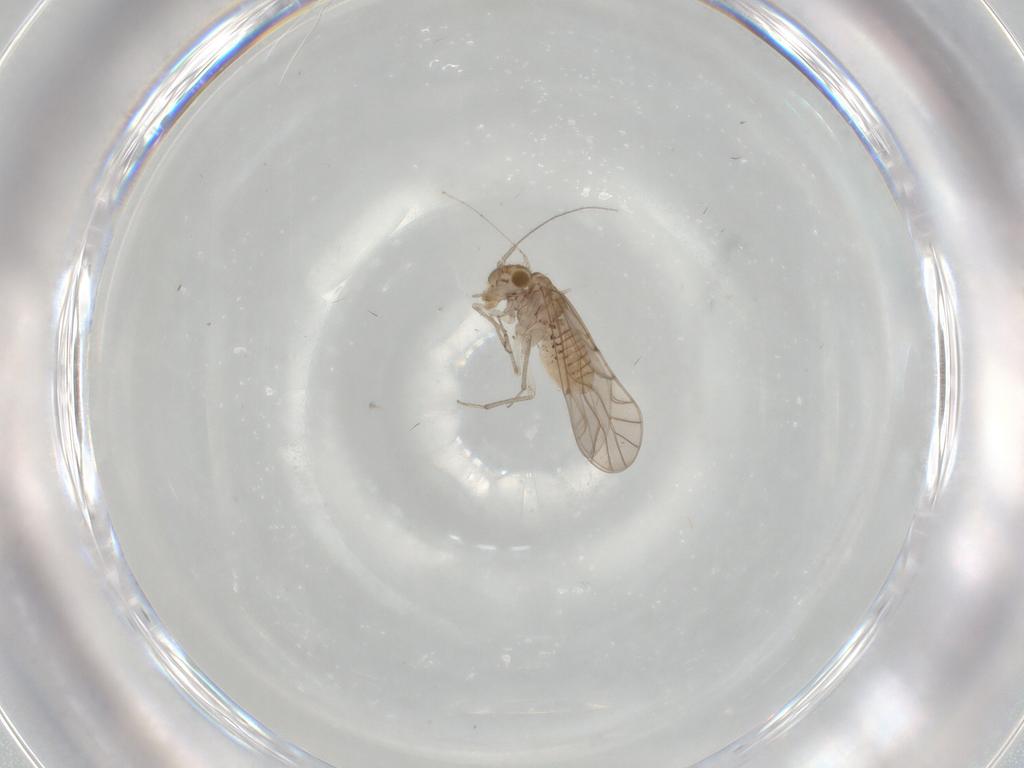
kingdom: Animalia
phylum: Arthropoda
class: Insecta
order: Psocodea
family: Lachesillidae
